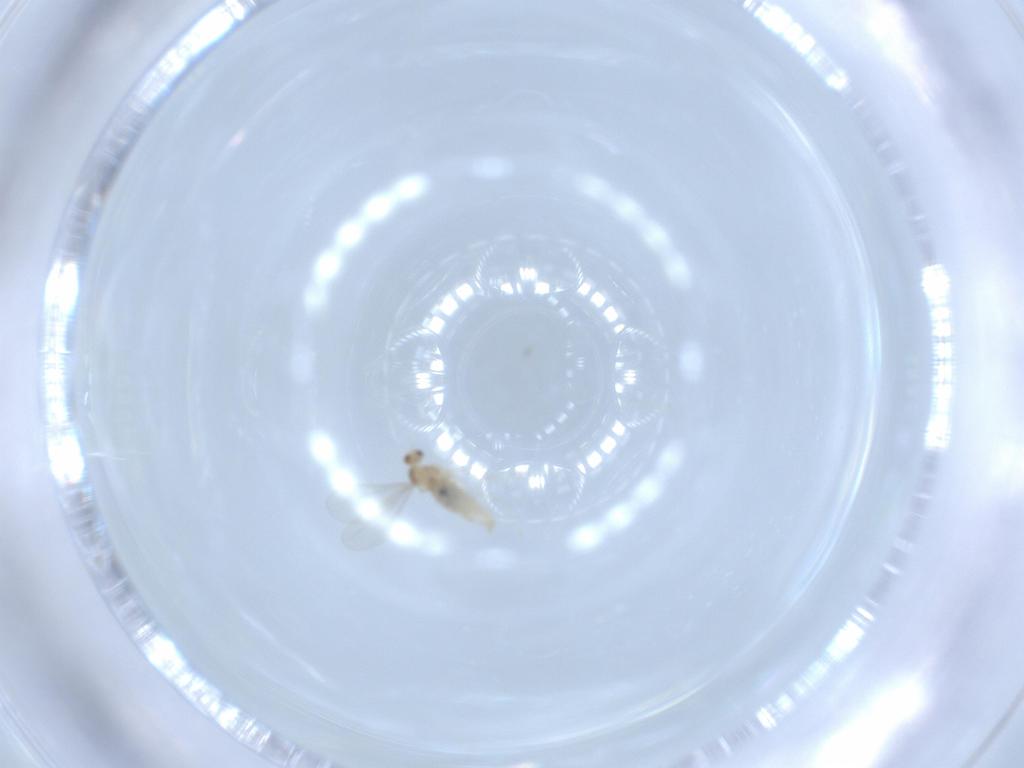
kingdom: Animalia
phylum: Arthropoda
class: Insecta
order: Diptera
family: Cecidomyiidae
